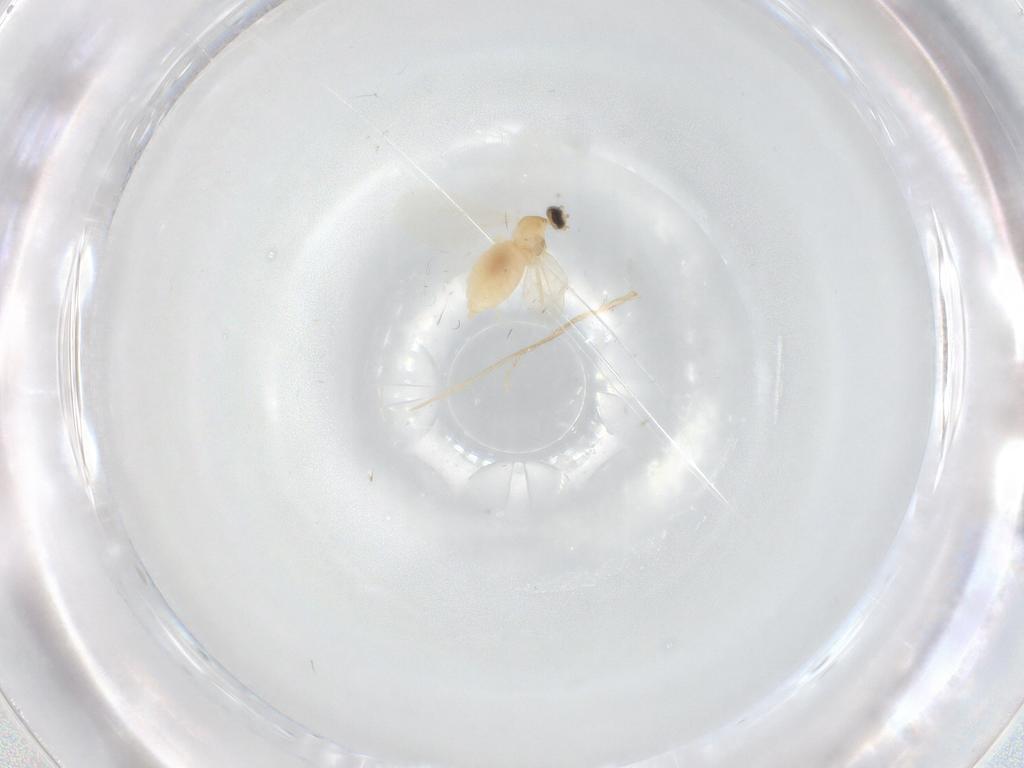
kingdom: Animalia
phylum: Arthropoda
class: Insecta
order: Diptera
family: Cecidomyiidae
